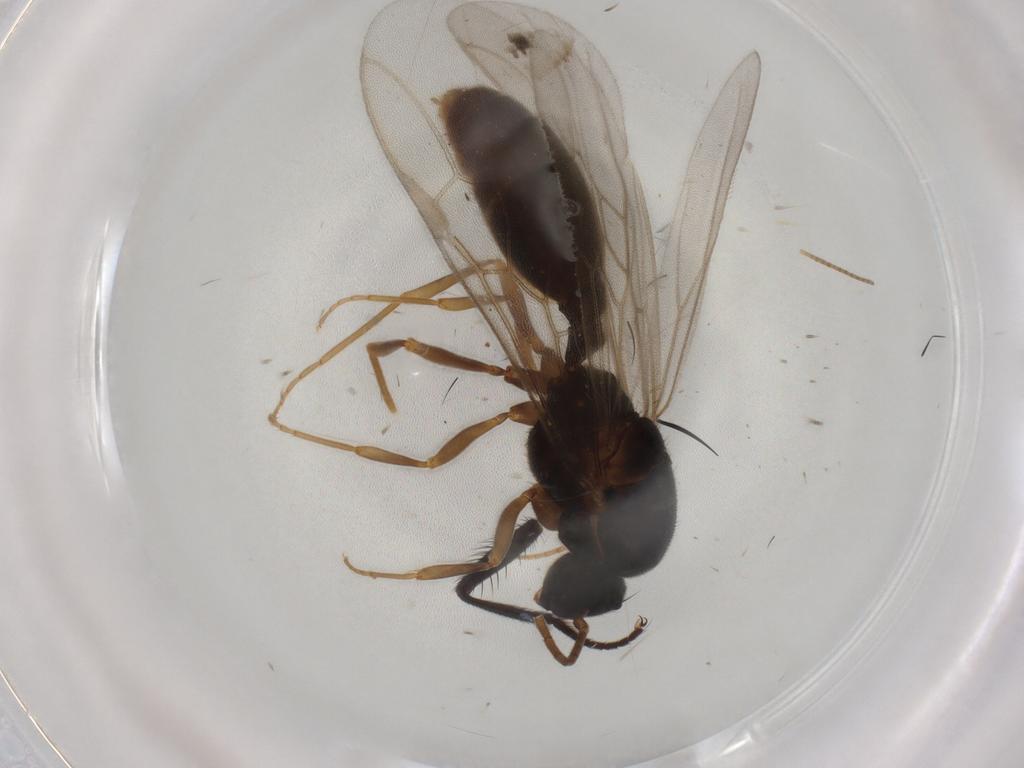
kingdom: Animalia
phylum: Arthropoda
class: Insecta
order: Hymenoptera
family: Formicidae
